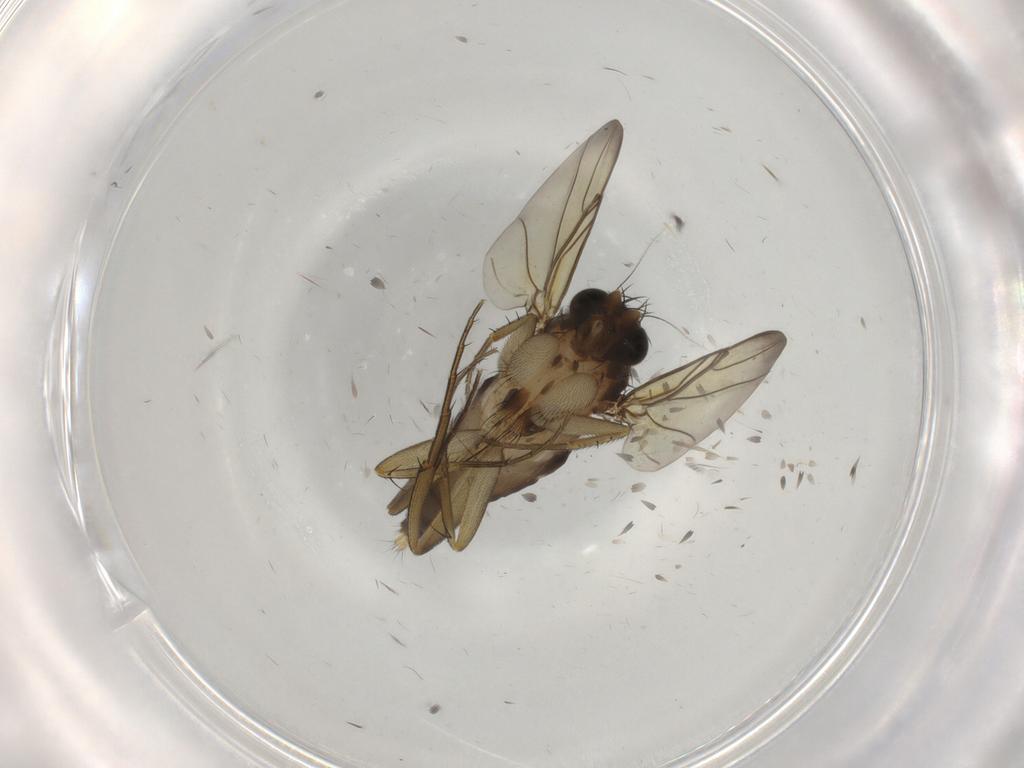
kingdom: Animalia
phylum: Arthropoda
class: Insecta
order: Diptera
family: Phoridae
